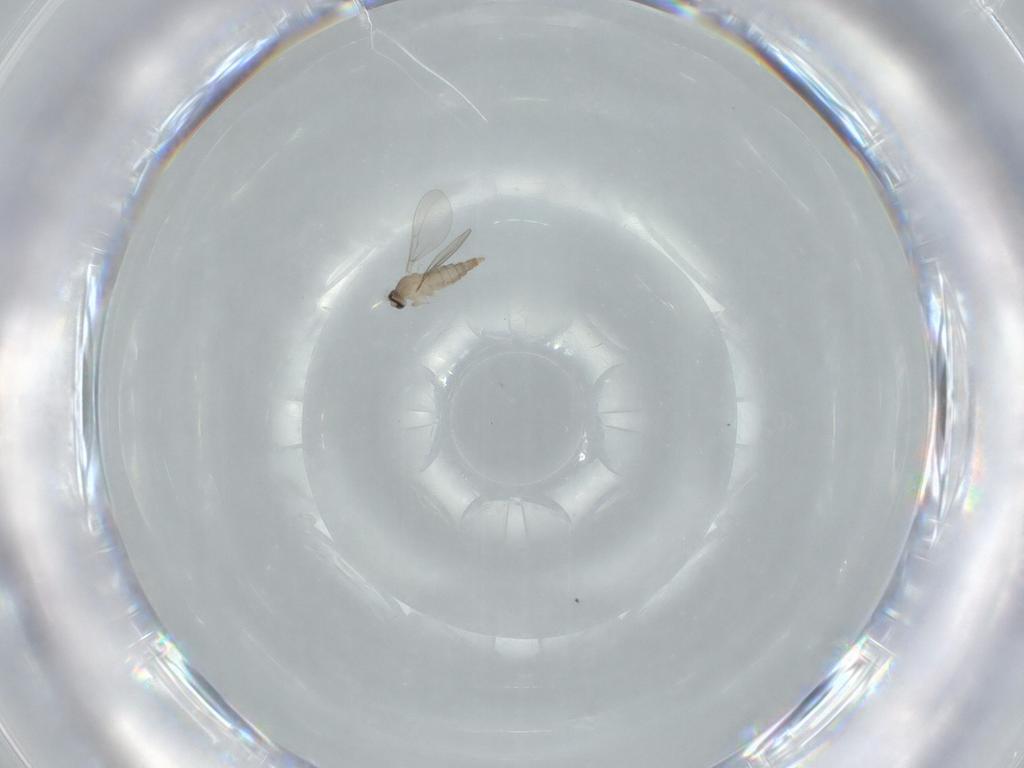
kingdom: Animalia
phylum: Arthropoda
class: Insecta
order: Diptera
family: Cecidomyiidae
